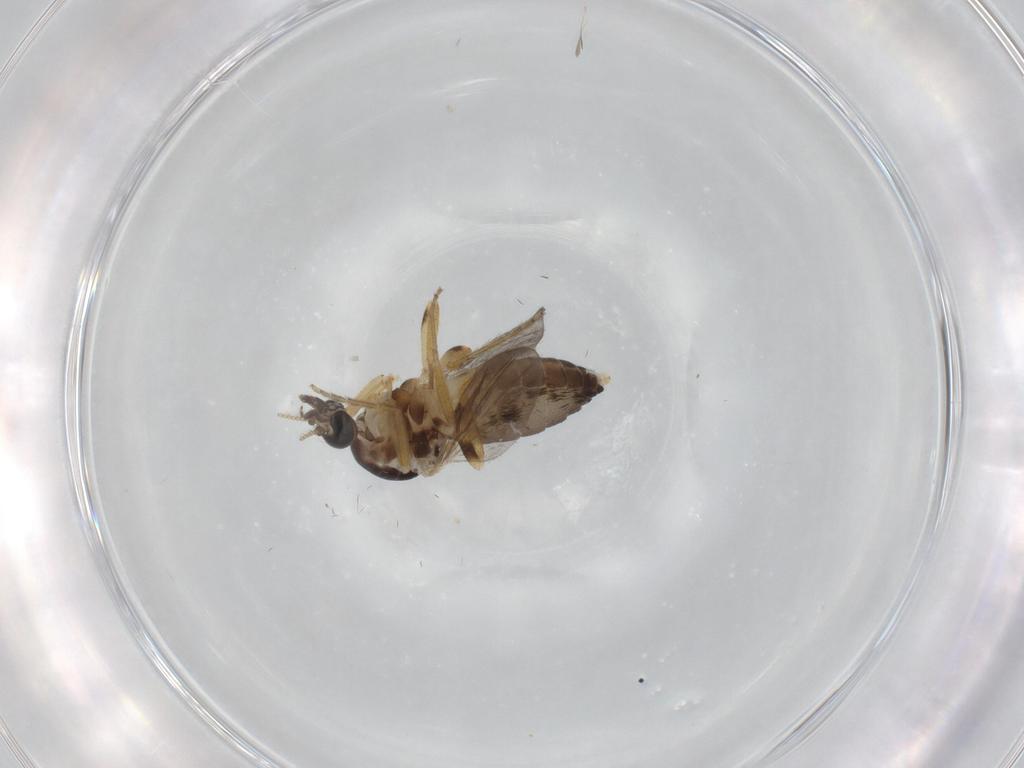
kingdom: Animalia
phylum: Arthropoda
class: Insecta
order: Diptera
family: Ceratopogonidae
